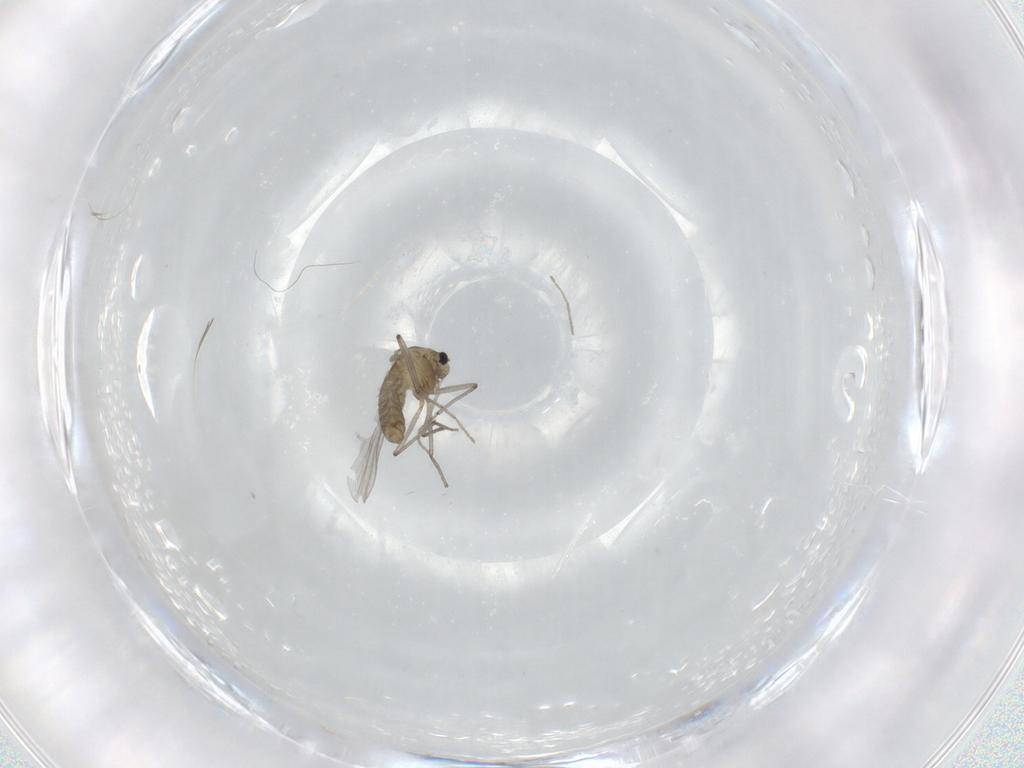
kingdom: Animalia
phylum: Arthropoda
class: Insecta
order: Diptera
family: Chironomidae
